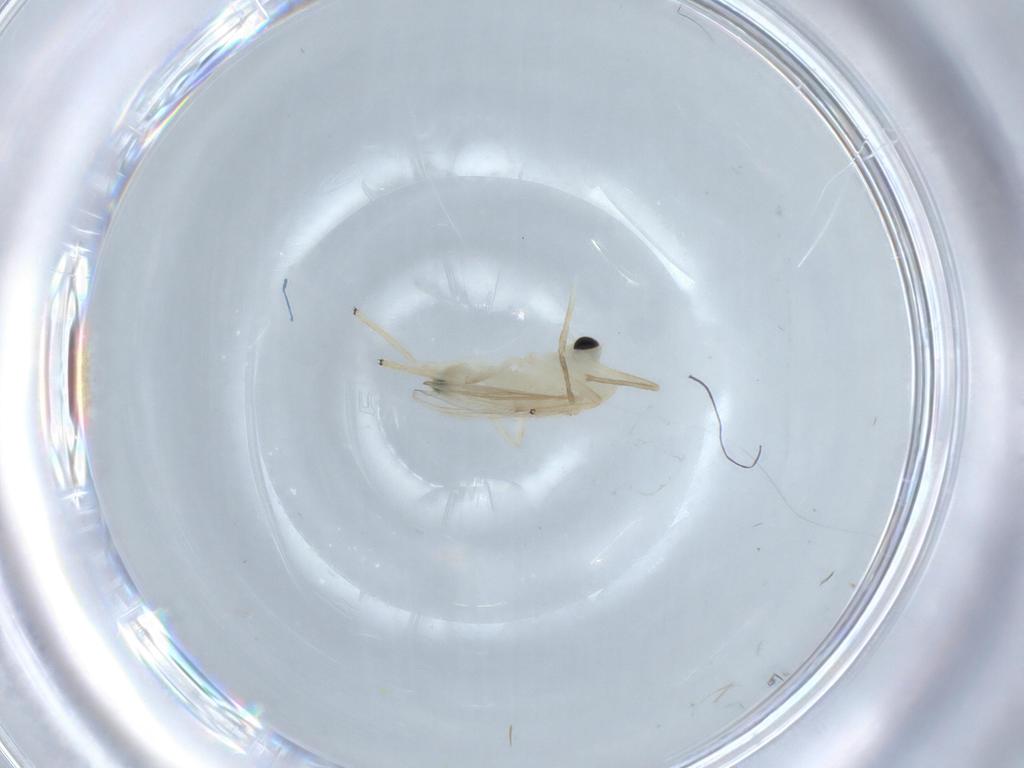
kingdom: Animalia
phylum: Arthropoda
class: Insecta
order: Diptera
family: Chironomidae
